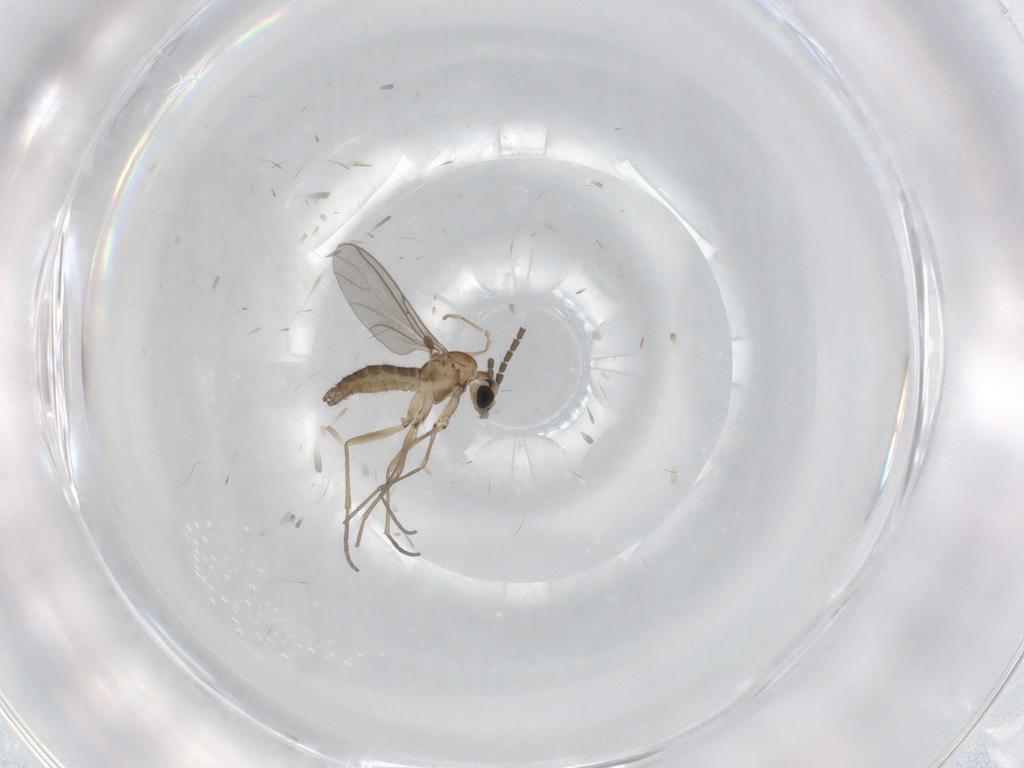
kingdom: Animalia
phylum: Arthropoda
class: Insecta
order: Diptera
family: Sciaridae
